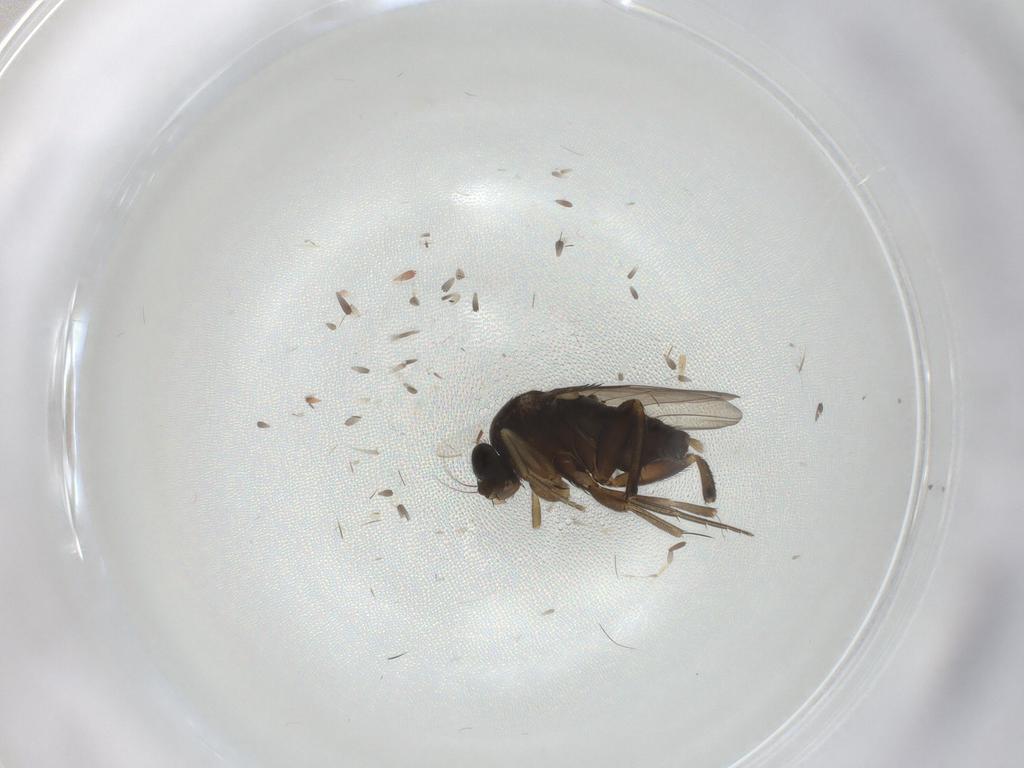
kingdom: Animalia
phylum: Arthropoda
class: Insecta
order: Diptera
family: Phoridae
